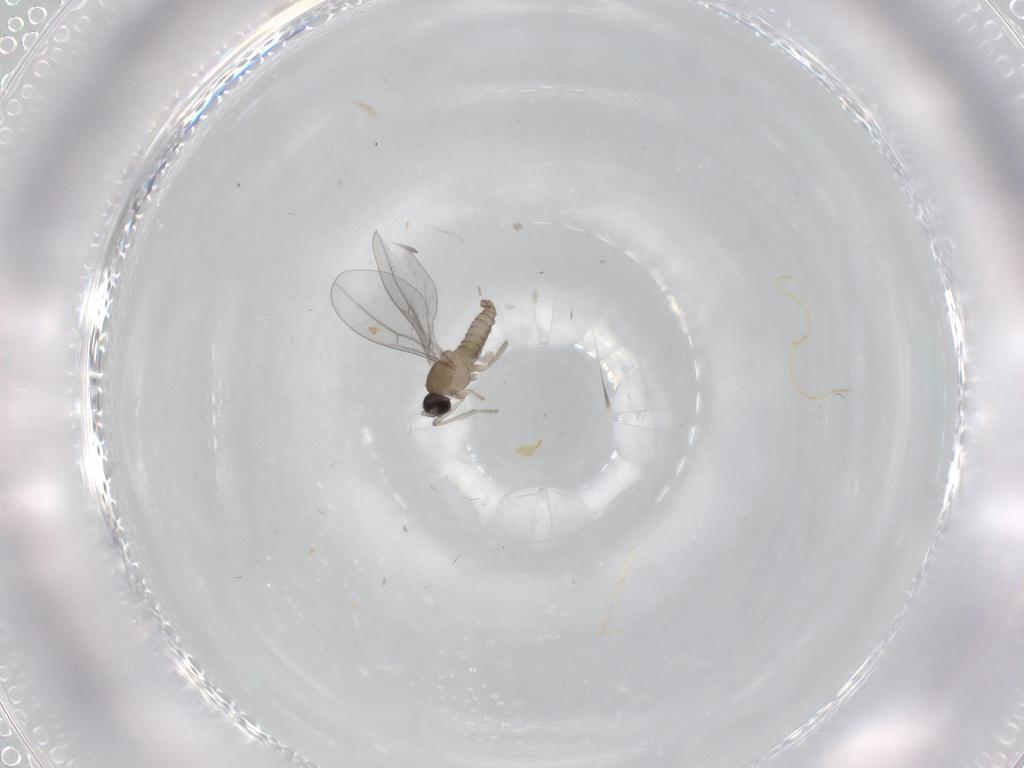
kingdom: Animalia
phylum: Arthropoda
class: Insecta
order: Diptera
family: Cecidomyiidae
